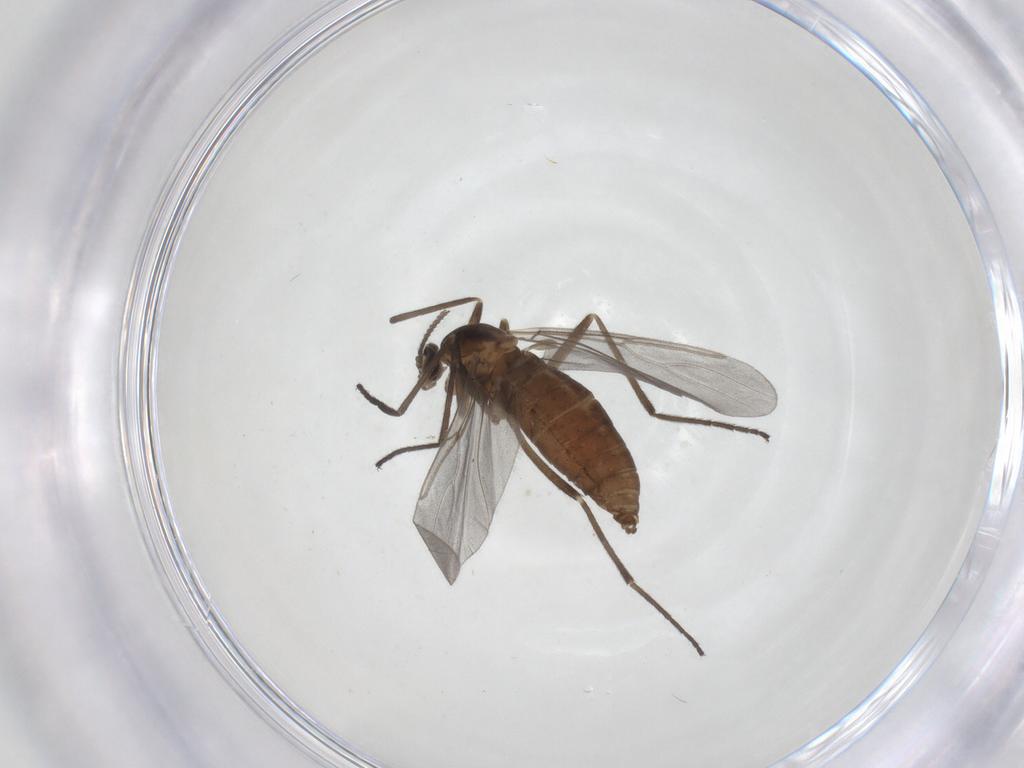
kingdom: Animalia
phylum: Arthropoda
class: Insecta
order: Diptera
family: Cecidomyiidae
